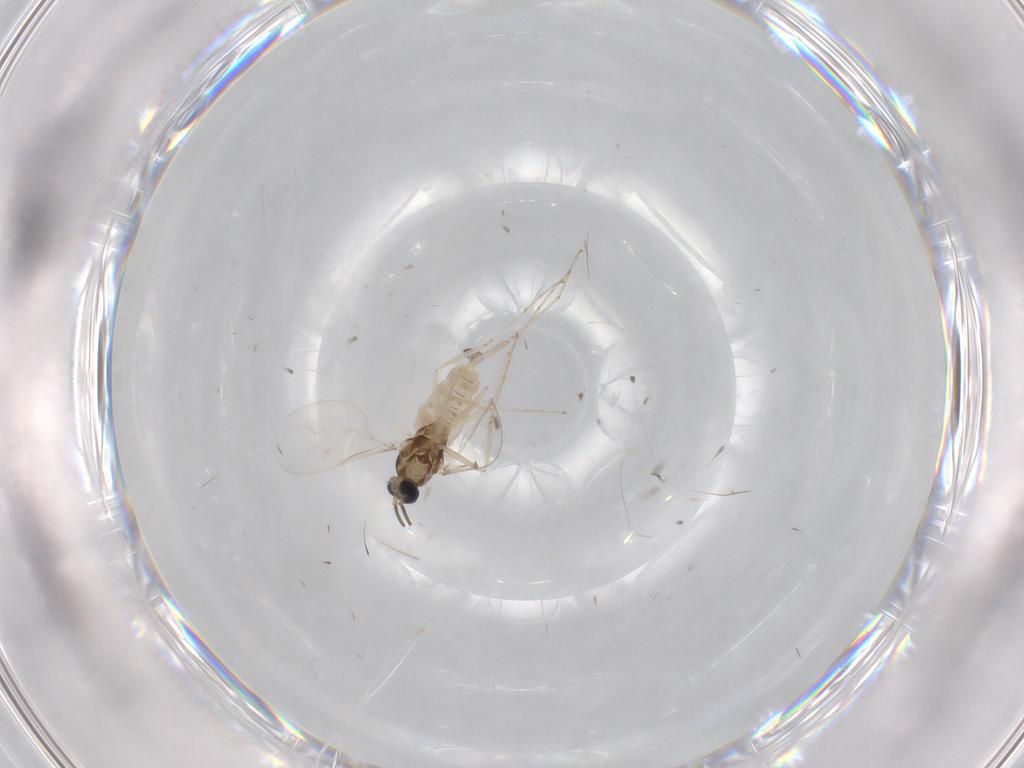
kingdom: Animalia
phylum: Arthropoda
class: Insecta
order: Diptera
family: Cecidomyiidae
